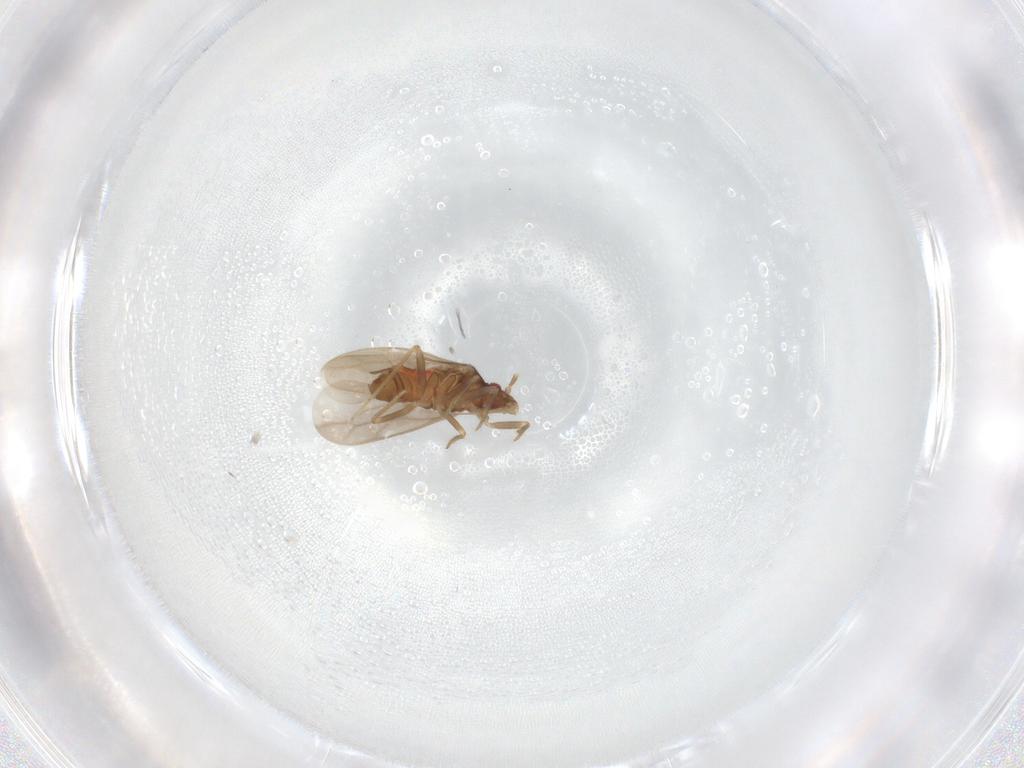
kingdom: Animalia
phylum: Arthropoda
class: Insecta
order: Hemiptera
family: Ceratocombidae
